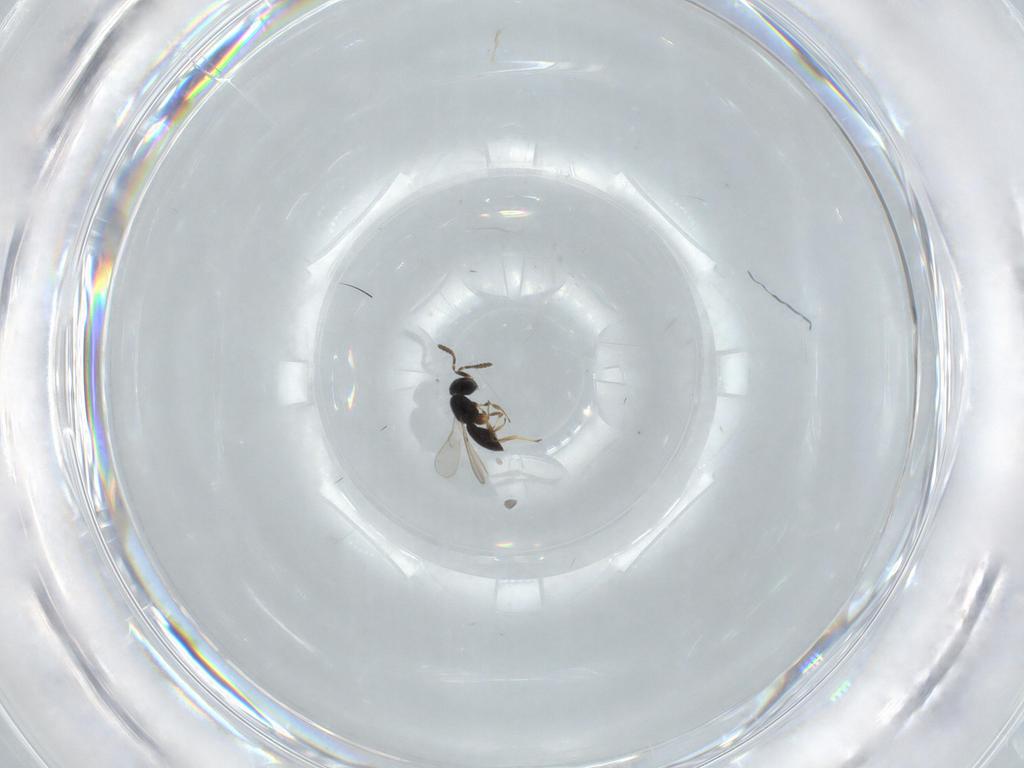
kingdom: Animalia
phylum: Arthropoda
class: Insecta
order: Hymenoptera
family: Scelionidae
